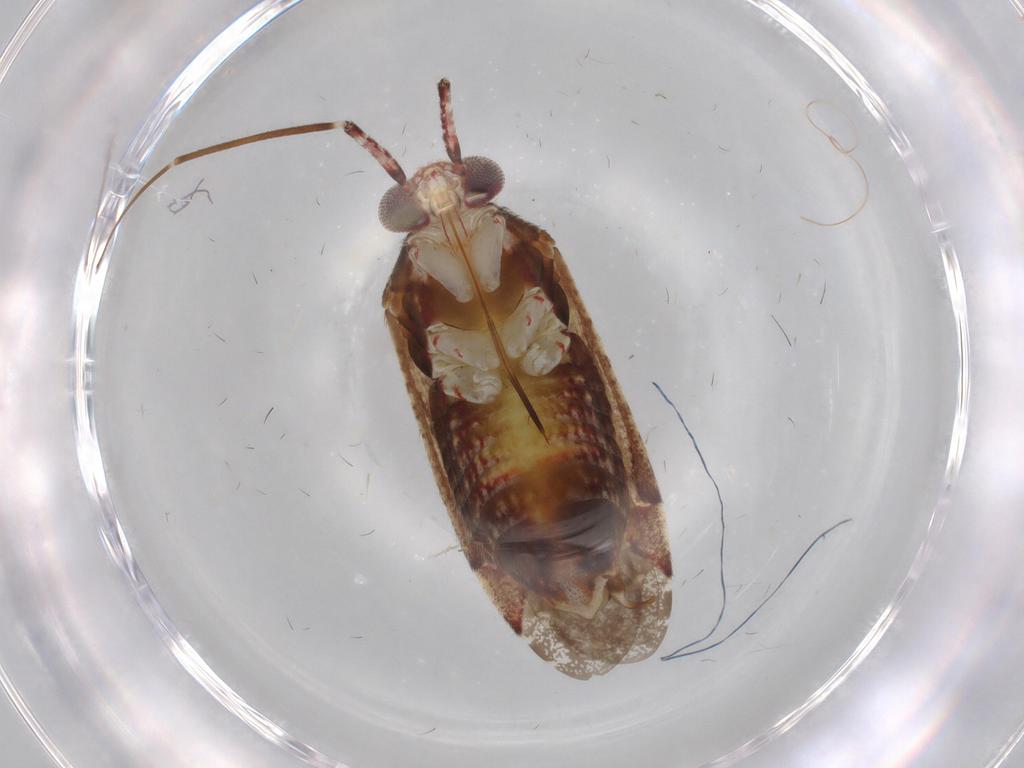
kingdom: Animalia
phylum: Arthropoda
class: Insecta
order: Hemiptera
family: Miridae
